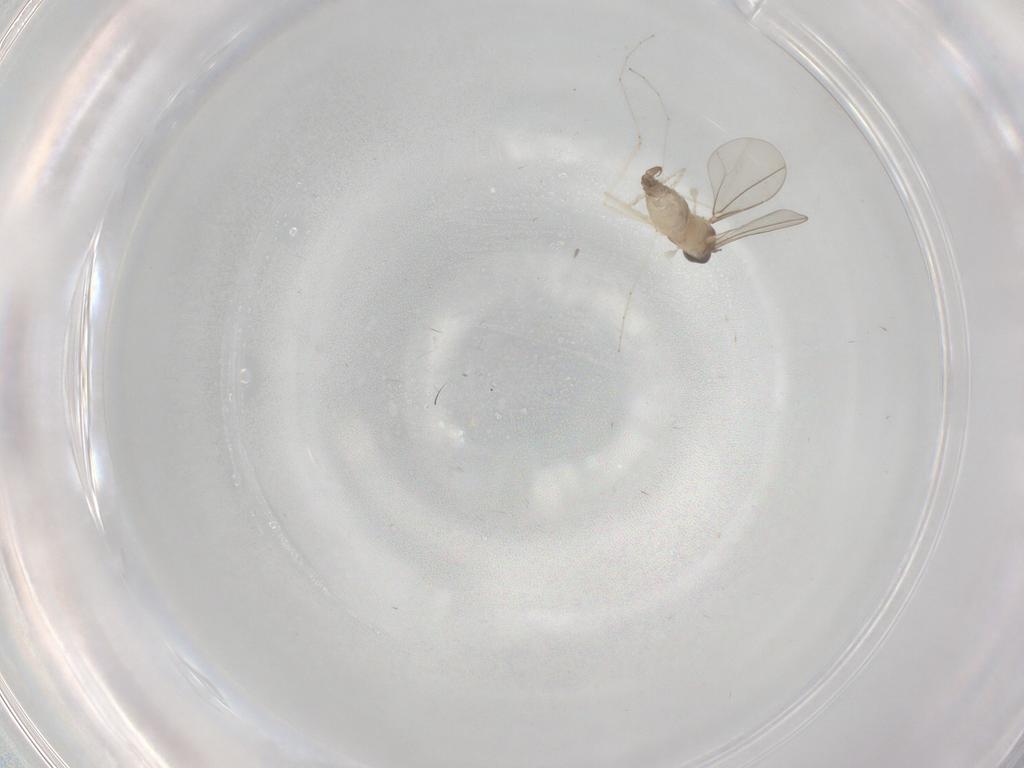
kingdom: Animalia
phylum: Arthropoda
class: Insecta
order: Diptera
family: Cecidomyiidae
